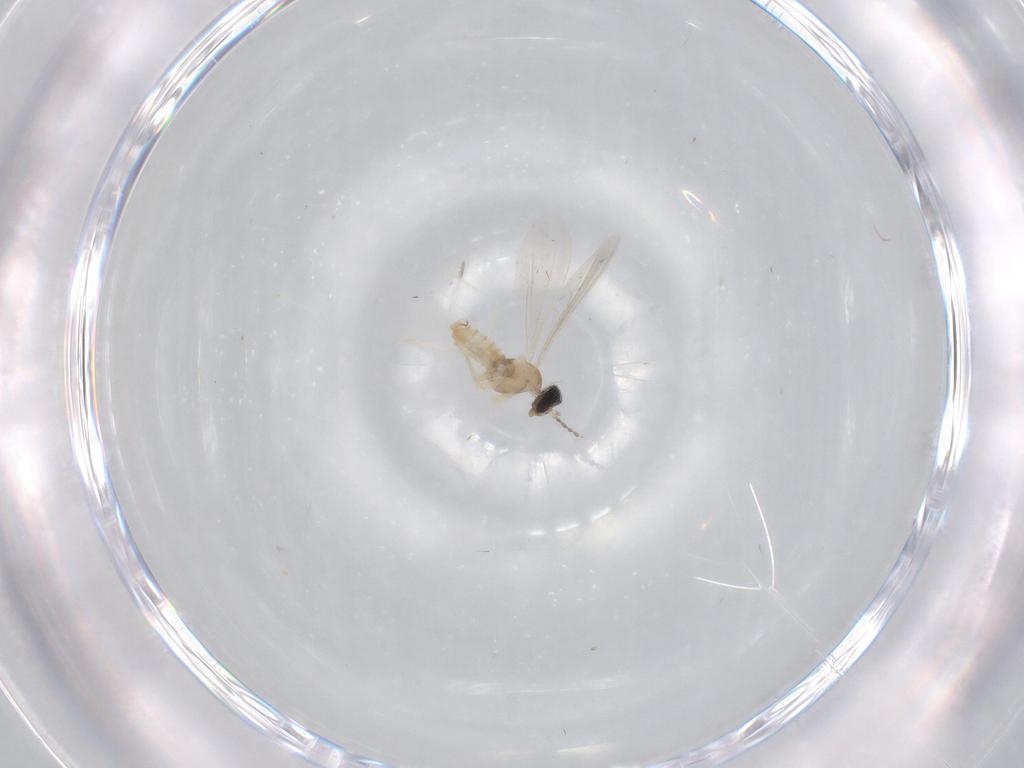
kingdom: Animalia
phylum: Arthropoda
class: Insecta
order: Diptera
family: Cecidomyiidae
